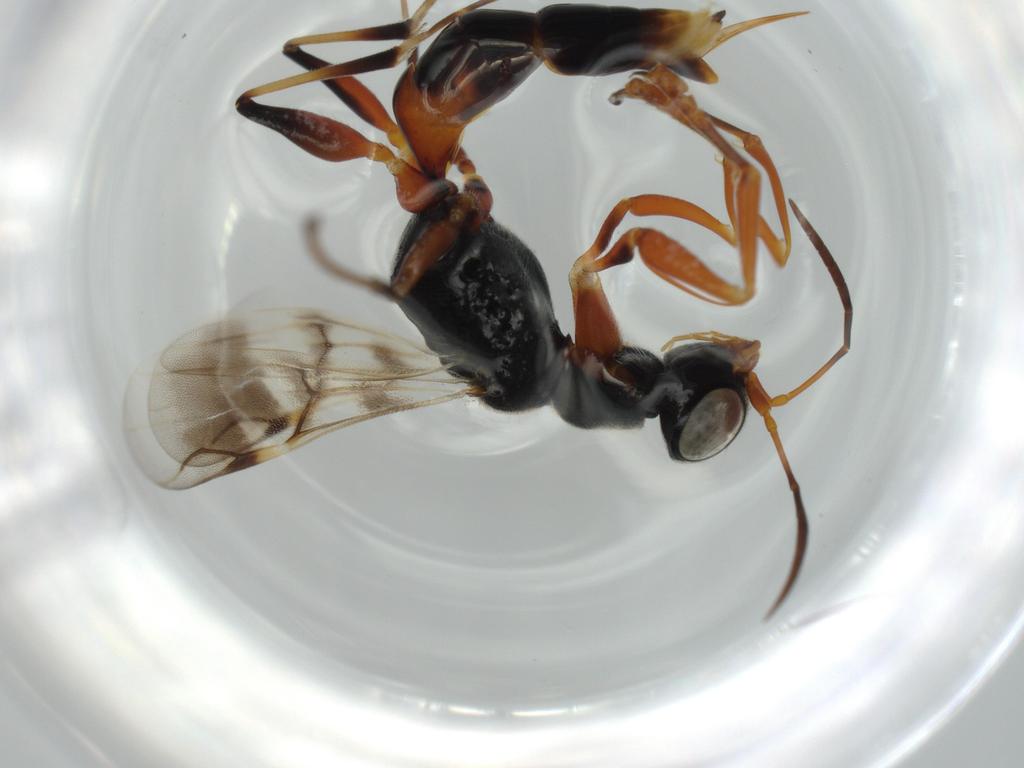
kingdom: Animalia
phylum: Arthropoda
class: Insecta
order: Hymenoptera
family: Dryinidae
